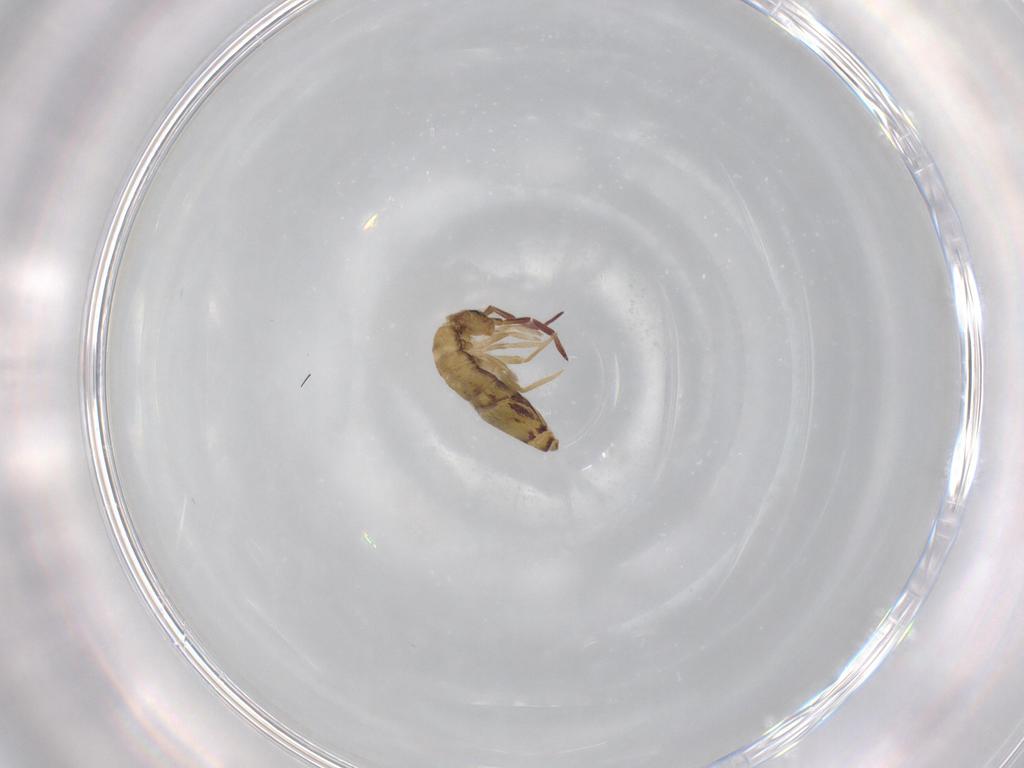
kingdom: Animalia
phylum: Arthropoda
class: Collembola
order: Entomobryomorpha
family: Entomobryidae
